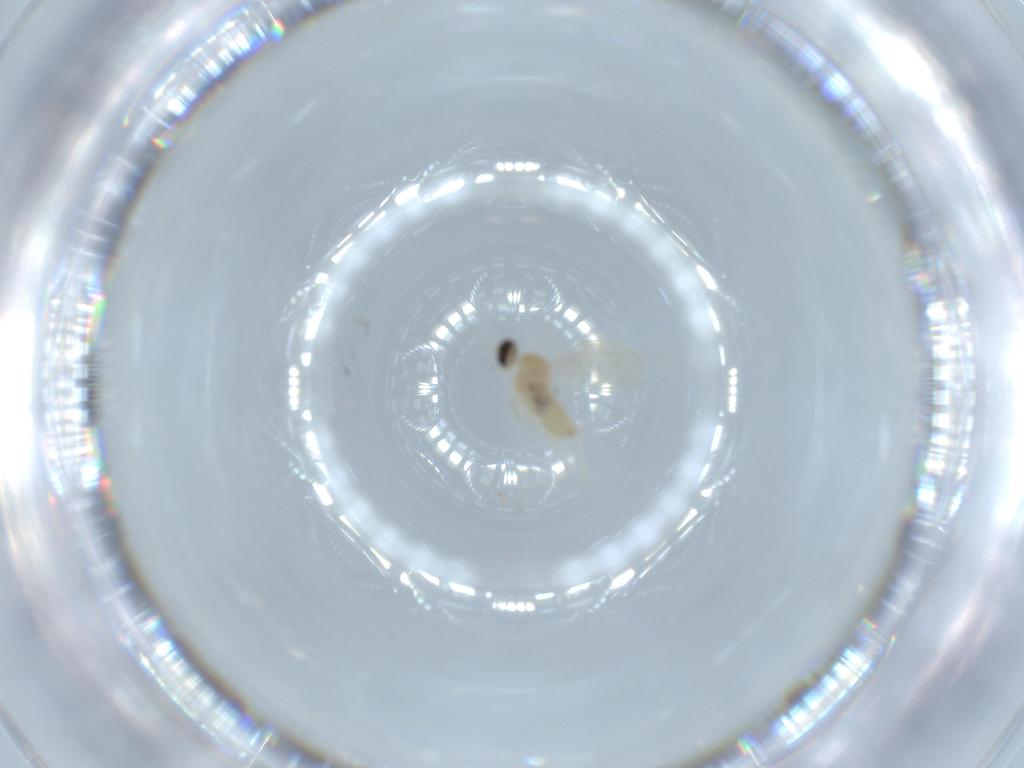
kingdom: Animalia
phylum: Arthropoda
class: Insecta
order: Diptera
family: Cecidomyiidae
